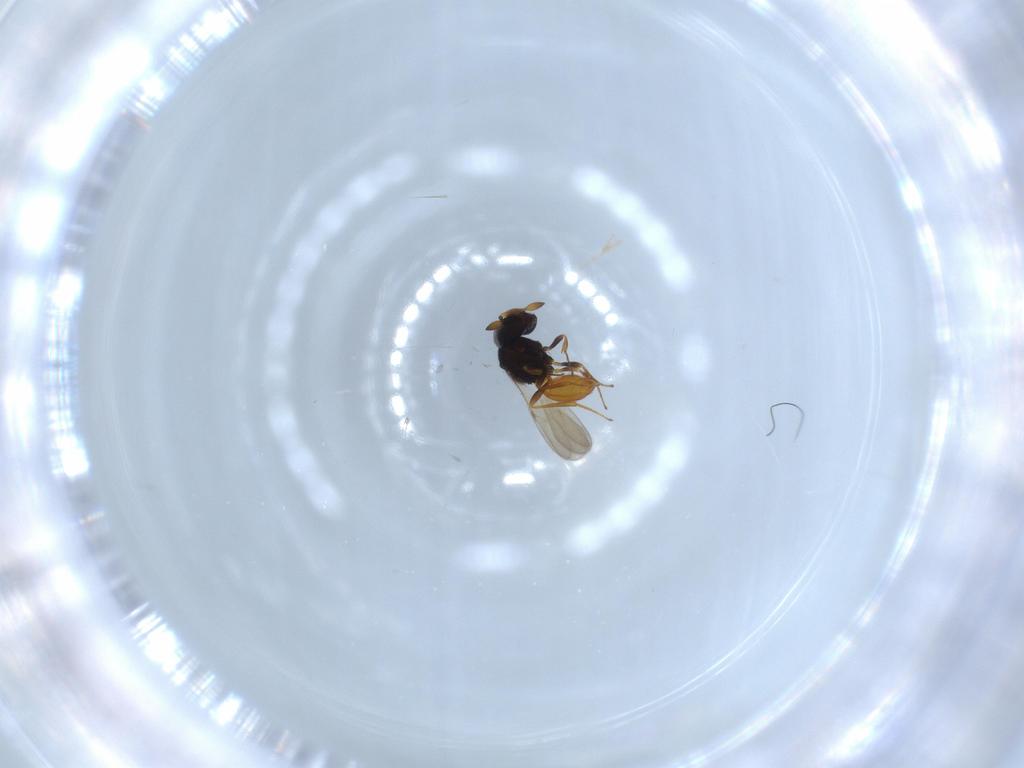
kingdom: Animalia
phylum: Arthropoda
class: Insecta
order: Hymenoptera
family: Scelionidae
